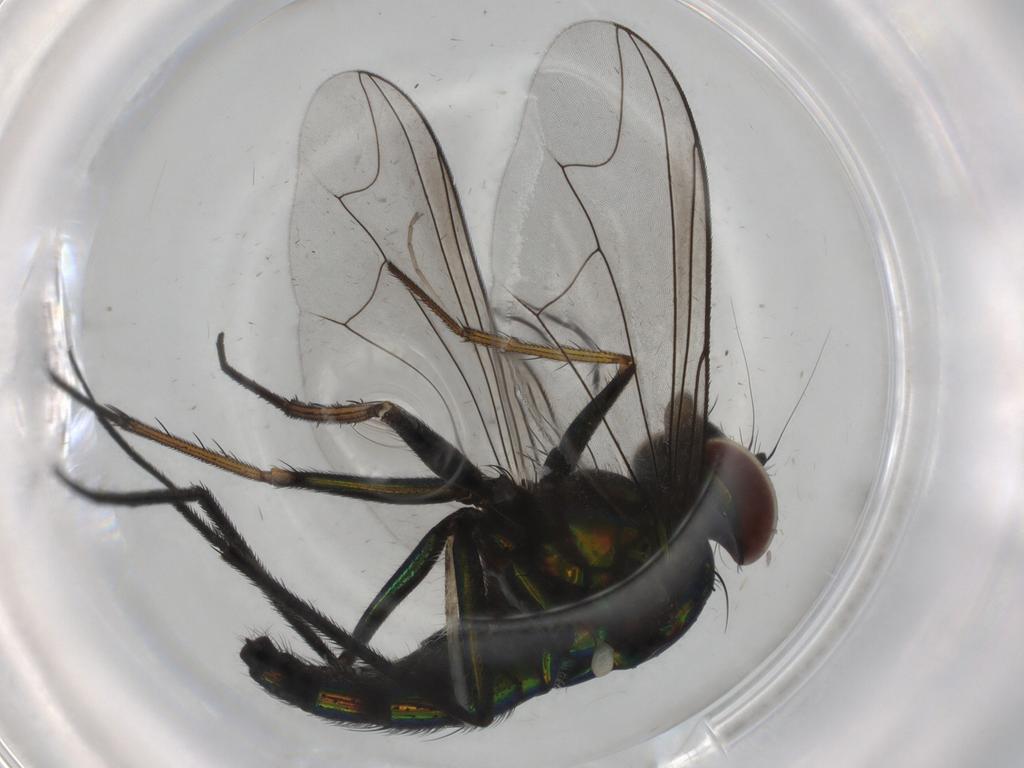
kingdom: Animalia
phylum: Arthropoda
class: Insecta
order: Diptera
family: Dolichopodidae
